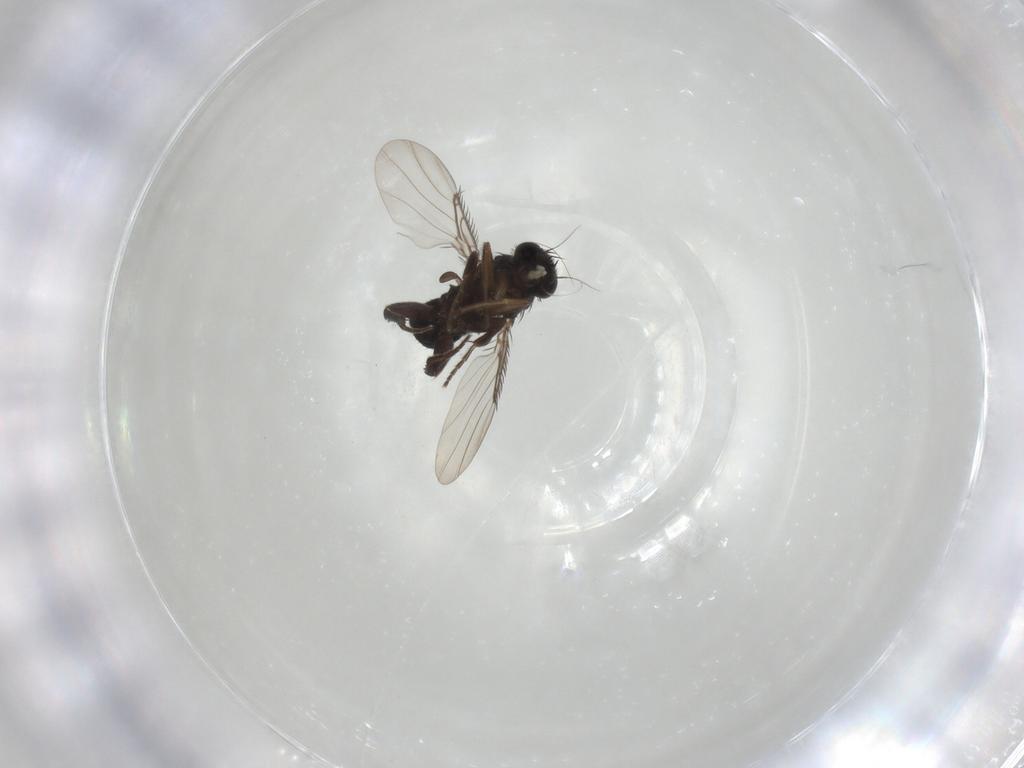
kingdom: Animalia
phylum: Arthropoda
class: Insecta
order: Diptera
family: Phoridae
